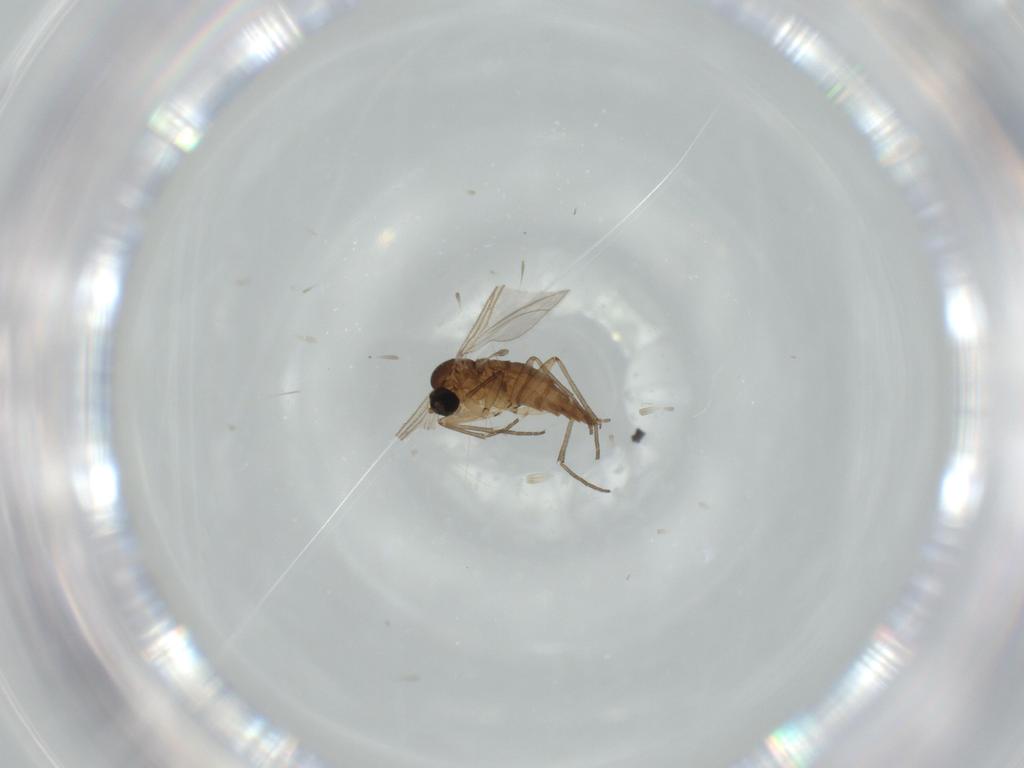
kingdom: Animalia
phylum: Arthropoda
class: Insecta
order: Diptera
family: Sciaridae
